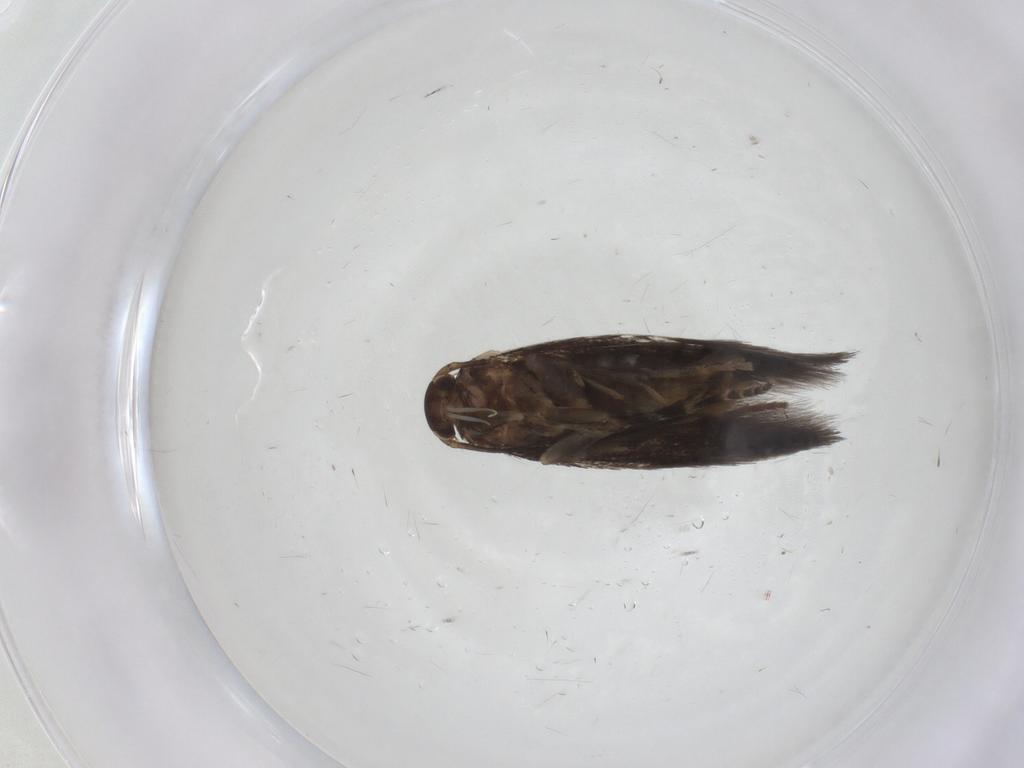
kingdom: Animalia
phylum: Arthropoda
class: Insecta
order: Lepidoptera
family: Elachistidae
